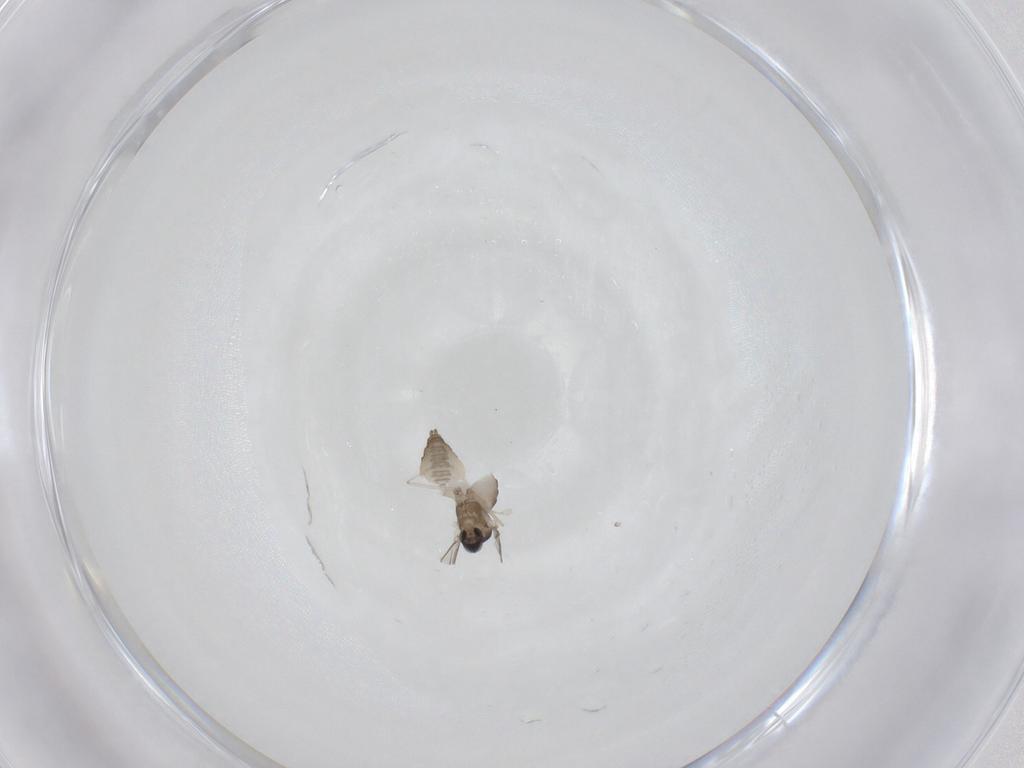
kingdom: Animalia
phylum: Arthropoda
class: Insecta
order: Diptera
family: Cecidomyiidae
